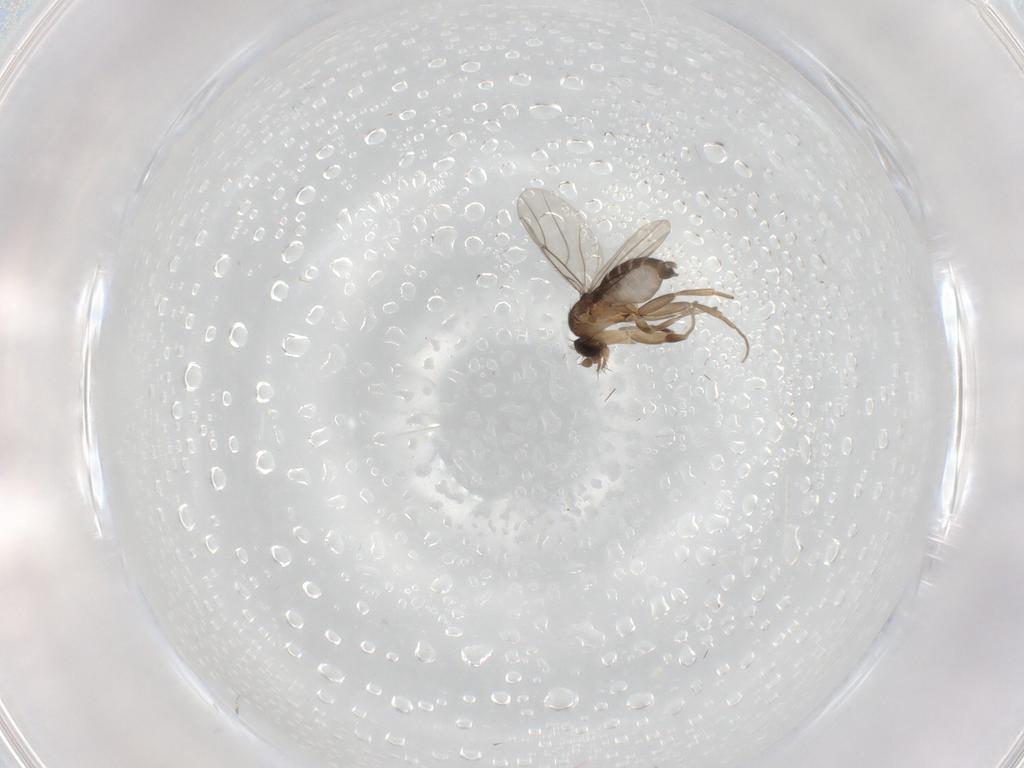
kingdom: Animalia
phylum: Arthropoda
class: Insecta
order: Diptera
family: Phoridae
